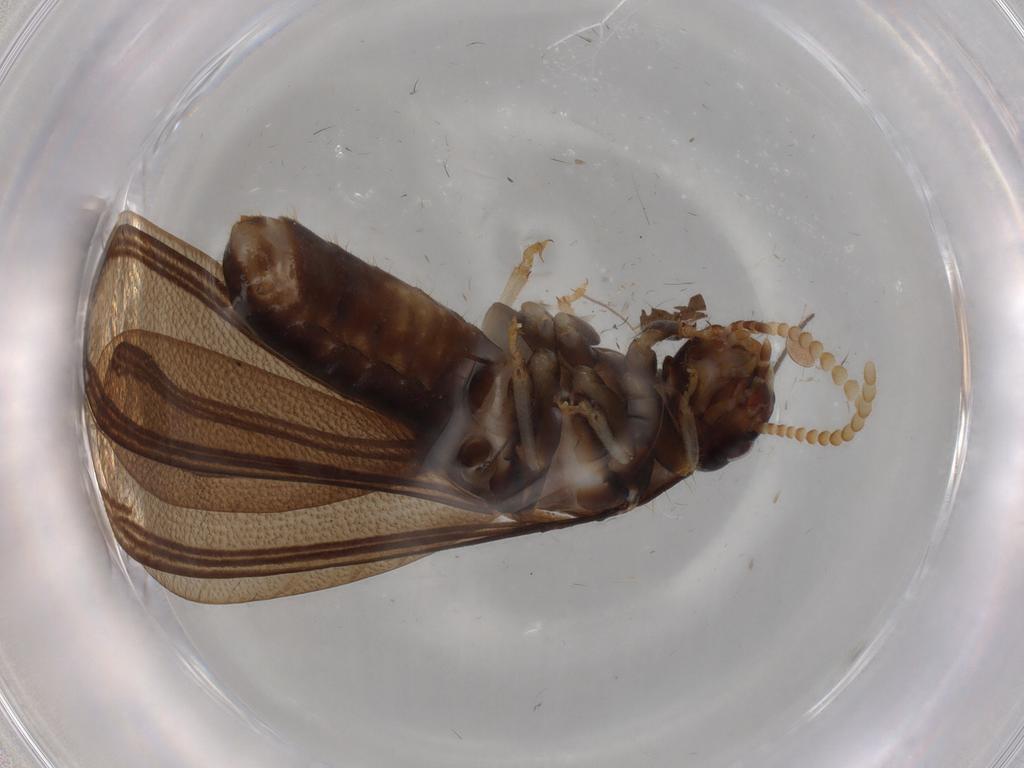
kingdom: Animalia
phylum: Arthropoda
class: Insecta
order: Blattodea
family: Kalotermitidae
